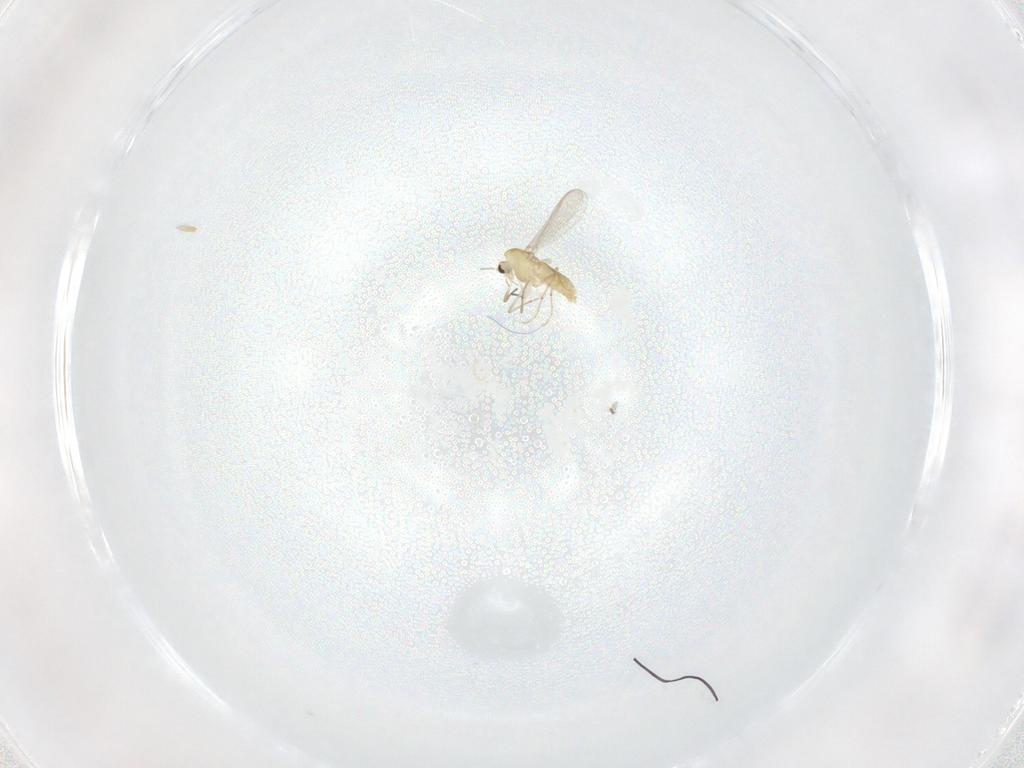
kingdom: Animalia
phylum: Arthropoda
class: Insecta
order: Diptera
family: Chironomidae
